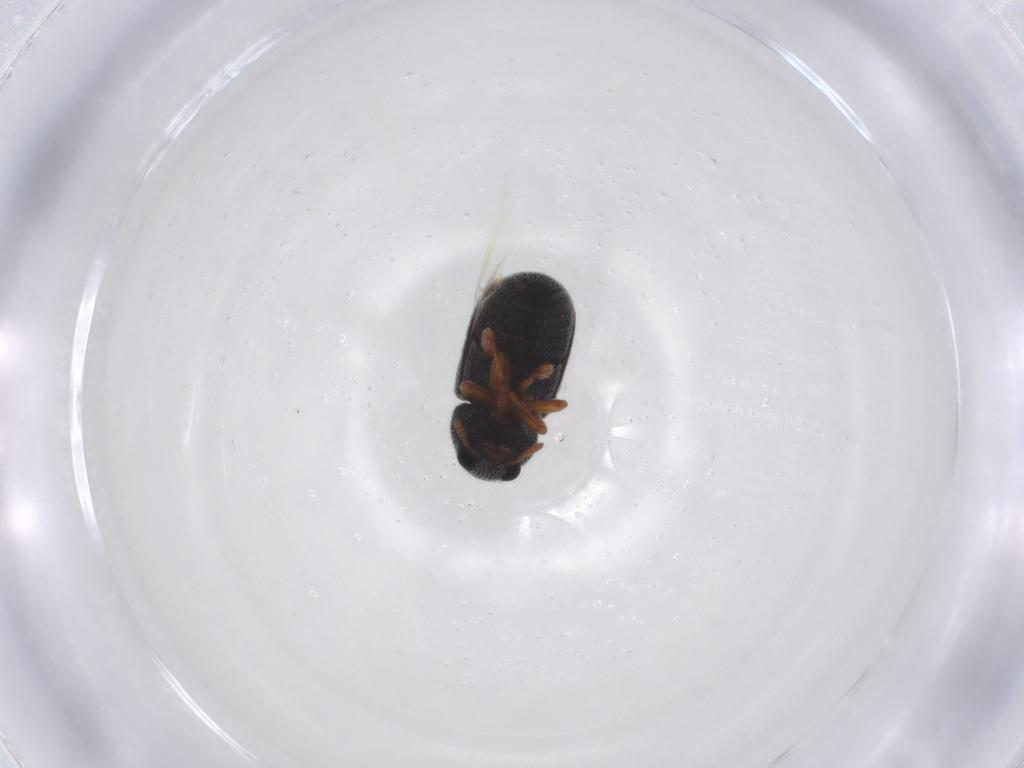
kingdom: Animalia
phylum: Arthropoda
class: Insecta
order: Coleoptera
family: Anthribidae
